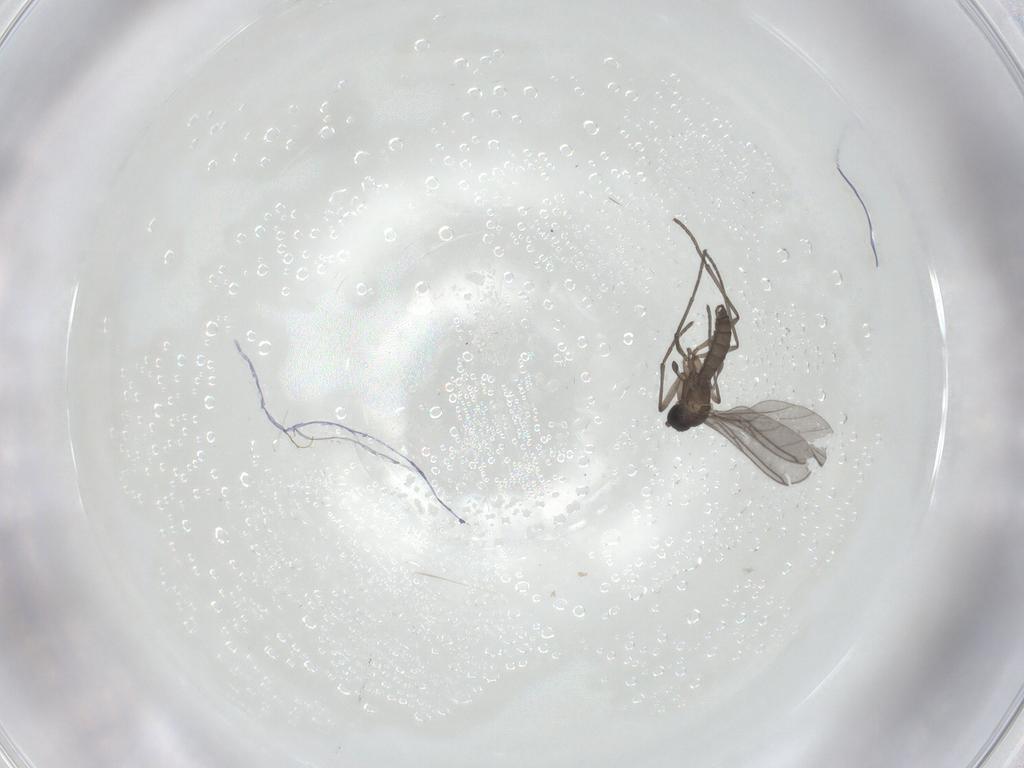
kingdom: Animalia
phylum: Arthropoda
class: Insecta
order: Diptera
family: Sciaridae
